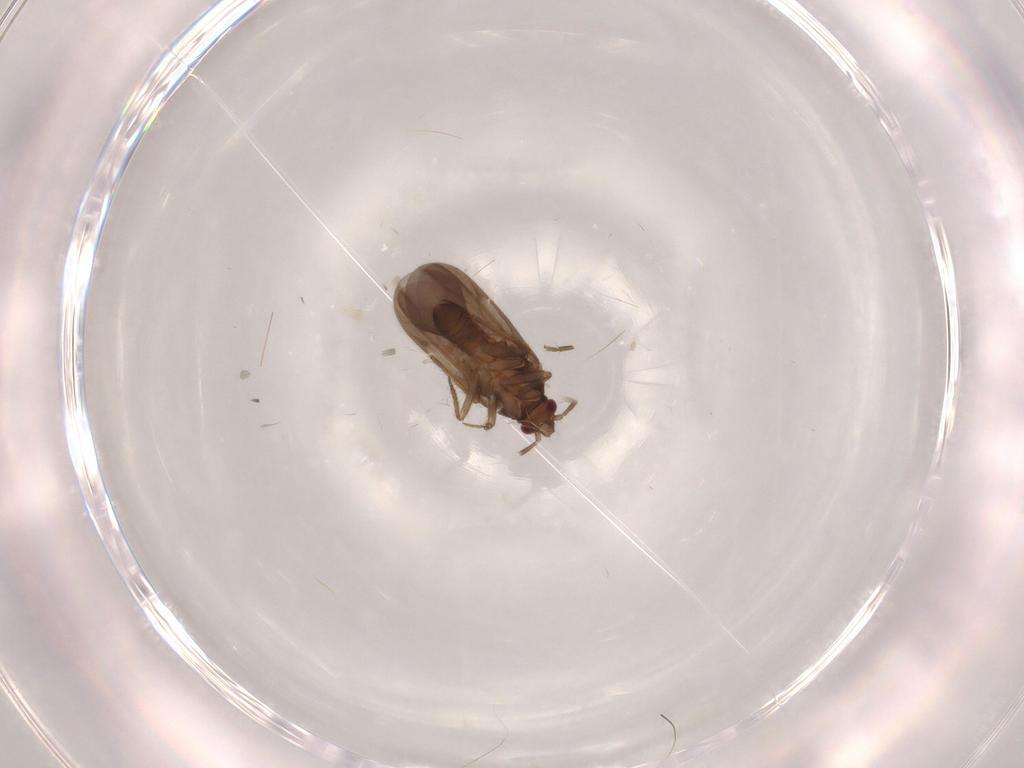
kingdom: Animalia
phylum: Arthropoda
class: Insecta
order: Hemiptera
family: Ceratocombidae
